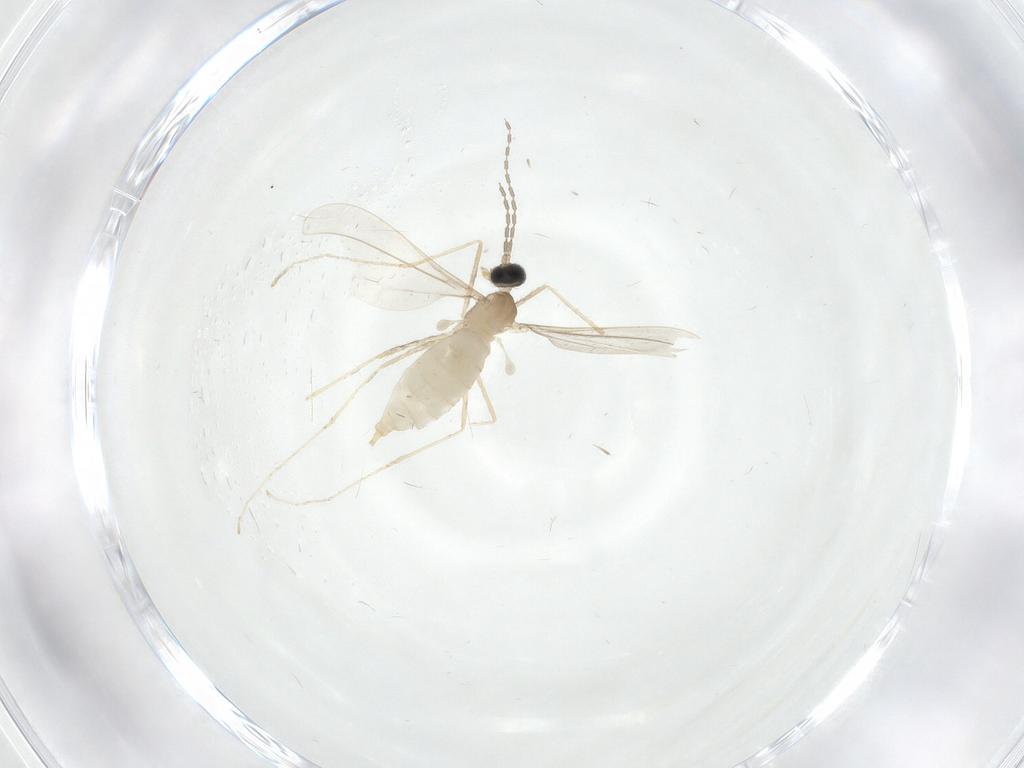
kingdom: Animalia
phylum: Arthropoda
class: Insecta
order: Diptera
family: Cecidomyiidae
